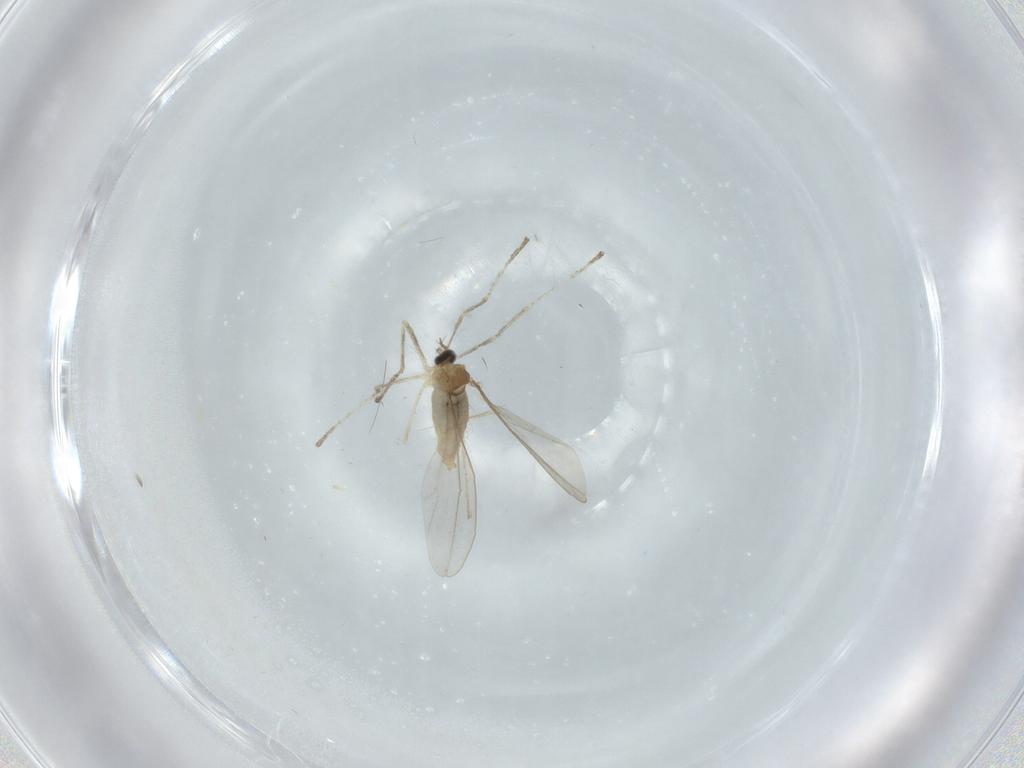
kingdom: Animalia
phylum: Arthropoda
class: Insecta
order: Diptera
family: Cecidomyiidae
